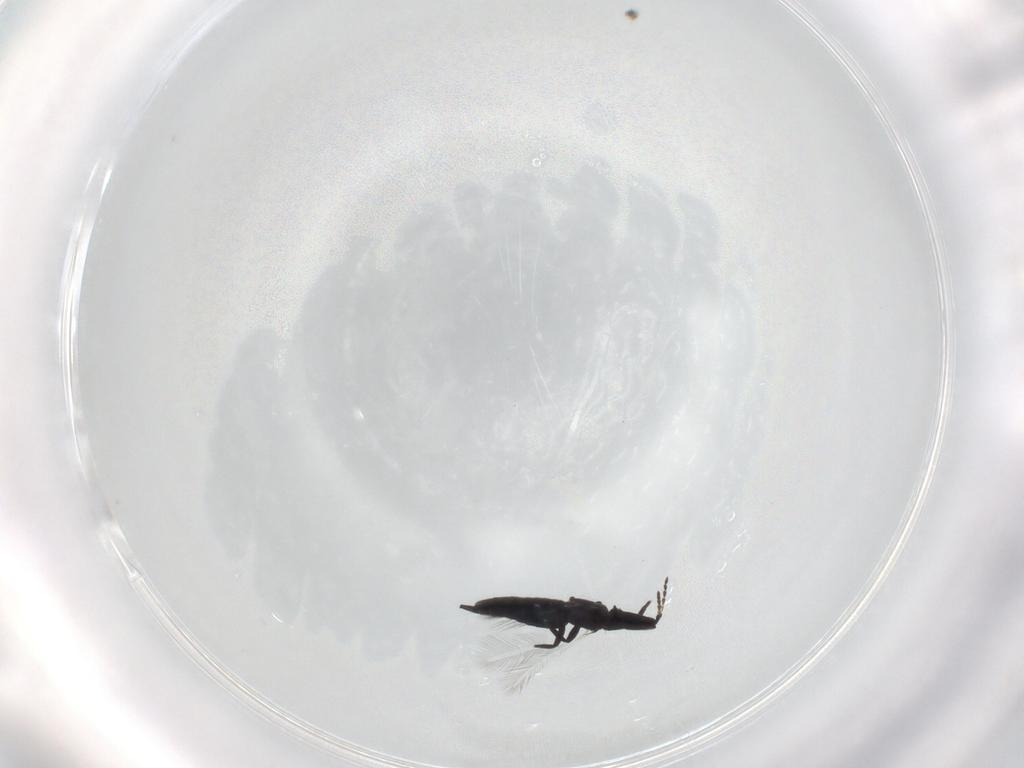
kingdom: Animalia
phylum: Arthropoda
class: Insecta
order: Thysanoptera
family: Phlaeothripidae
